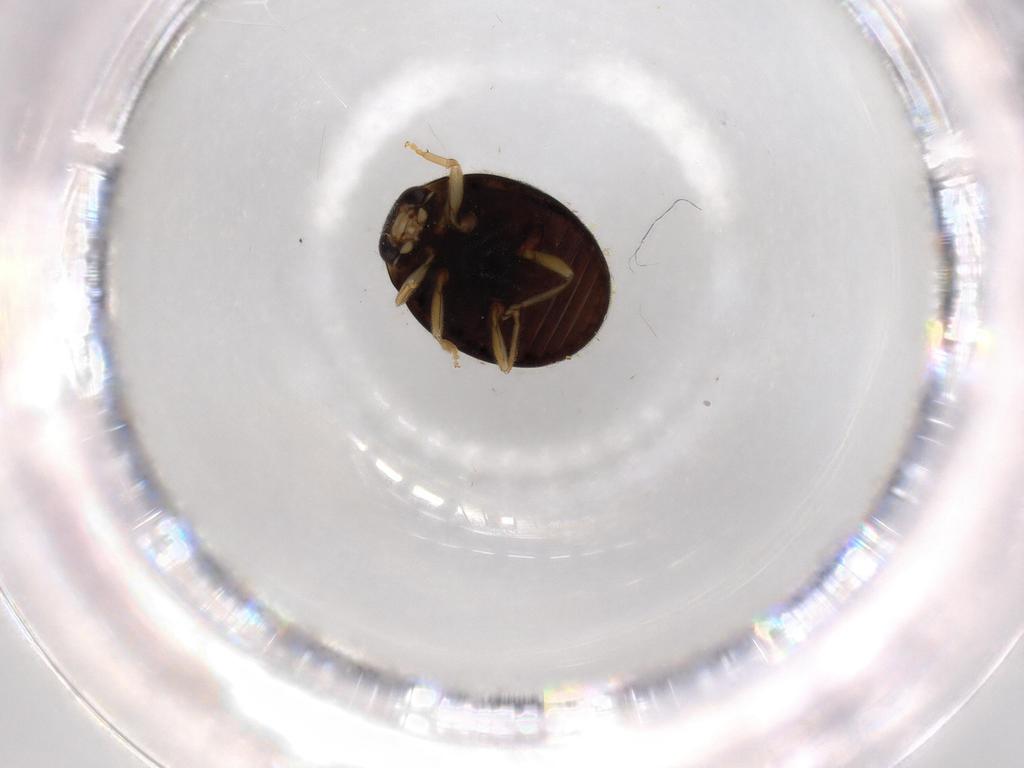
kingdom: Animalia
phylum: Arthropoda
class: Insecta
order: Coleoptera
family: Coccinellidae
